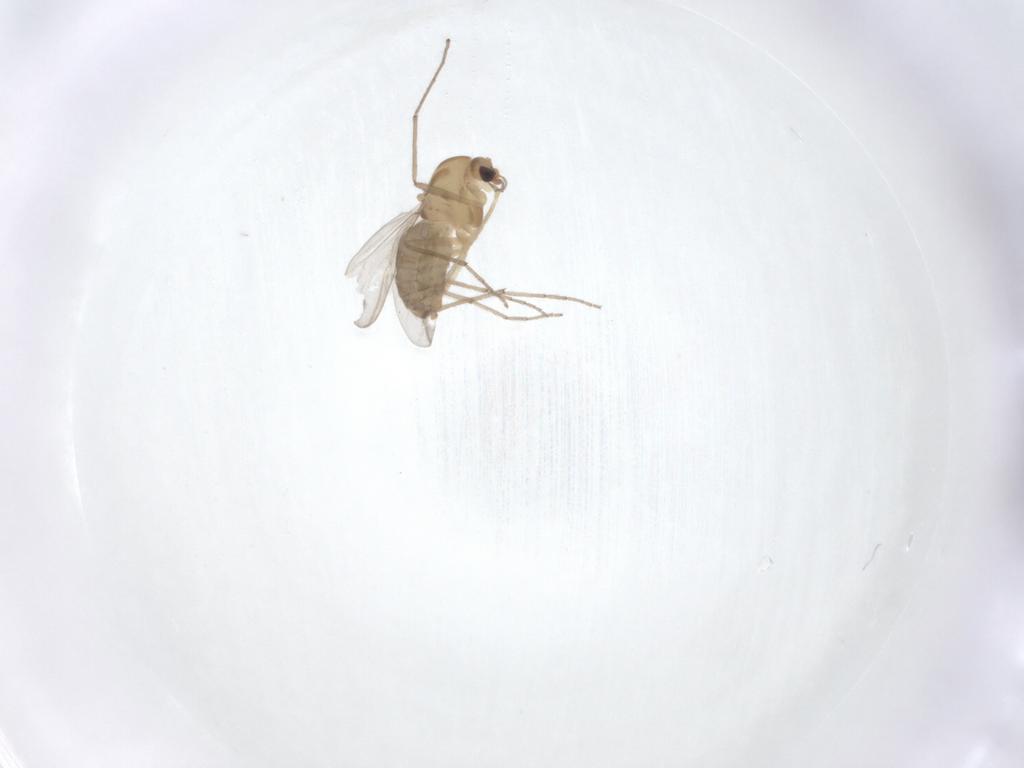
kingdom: Animalia
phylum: Arthropoda
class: Insecta
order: Diptera
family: Chironomidae
